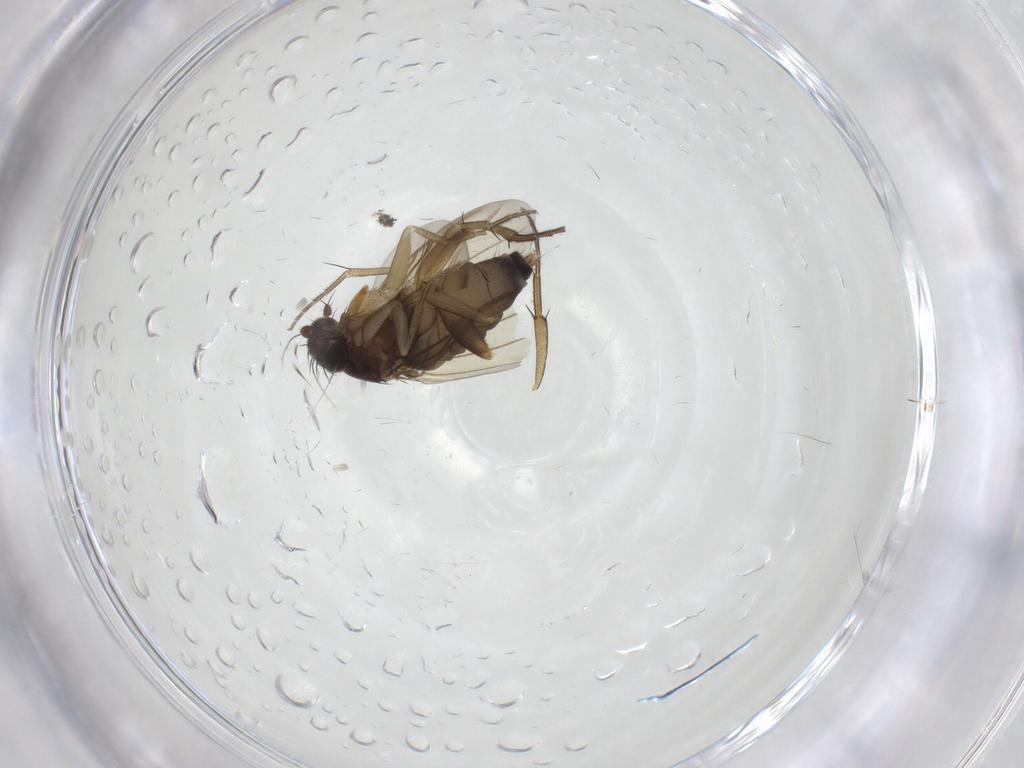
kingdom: Animalia
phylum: Arthropoda
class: Insecta
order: Diptera
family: Phoridae
